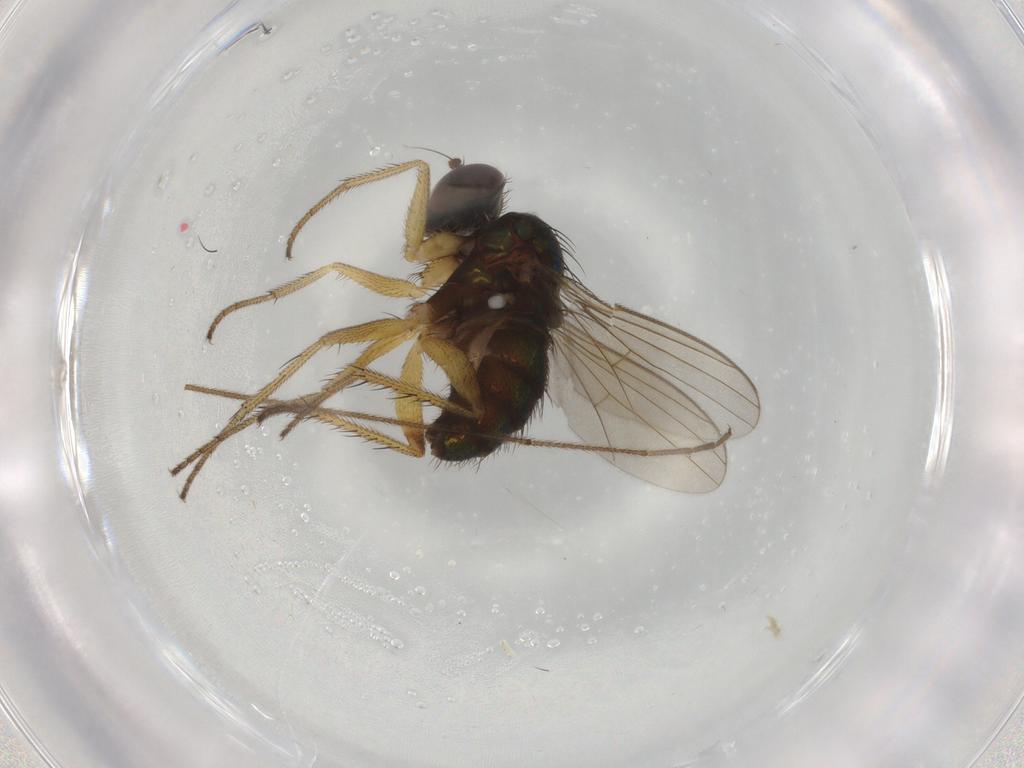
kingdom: Animalia
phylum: Arthropoda
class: Insecta
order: Diptera
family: Dolichopodidae
